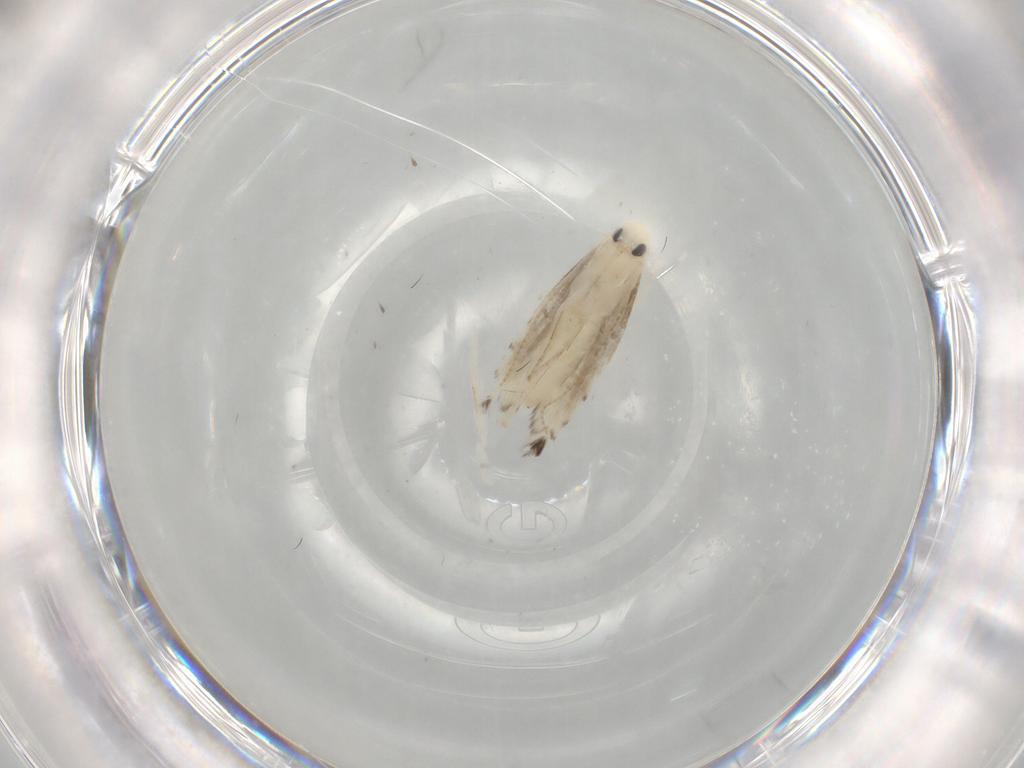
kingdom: Animalia
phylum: Arthropoda
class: Insecta
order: Lepidoptera
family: Gracillariidae
